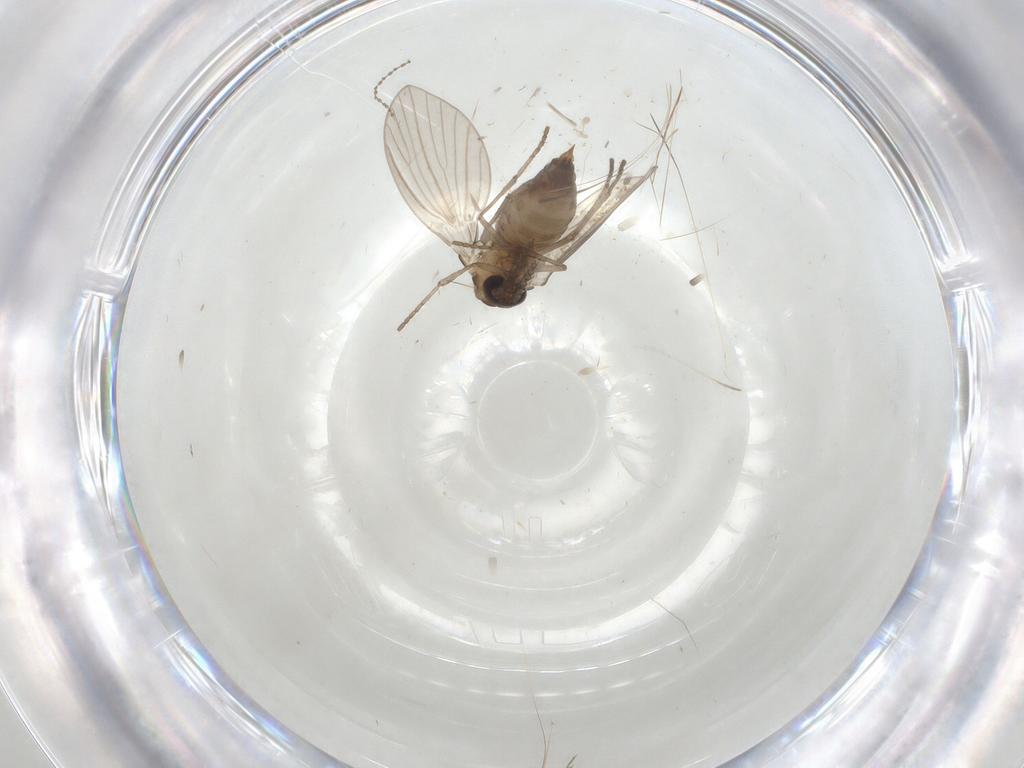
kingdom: Animalia
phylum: Arthropoda
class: Insecta
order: Diptera
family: Psychodidae
